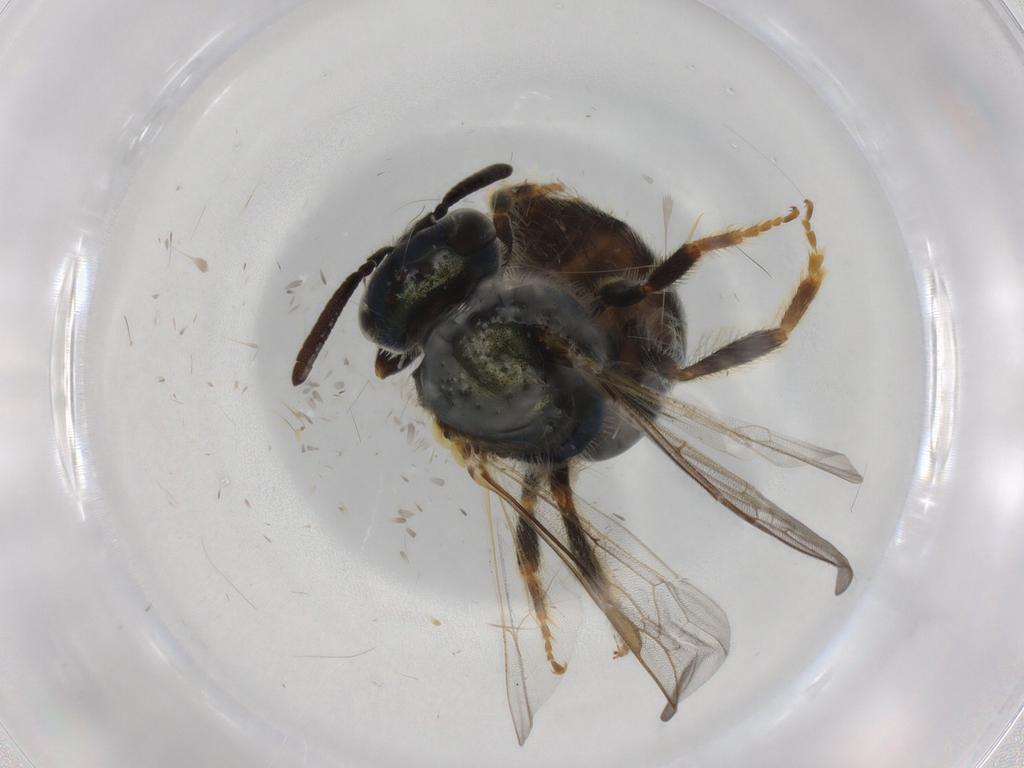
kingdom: Animalia
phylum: Arthropoda
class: Insecta
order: Hymenoptera
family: Halictidae
